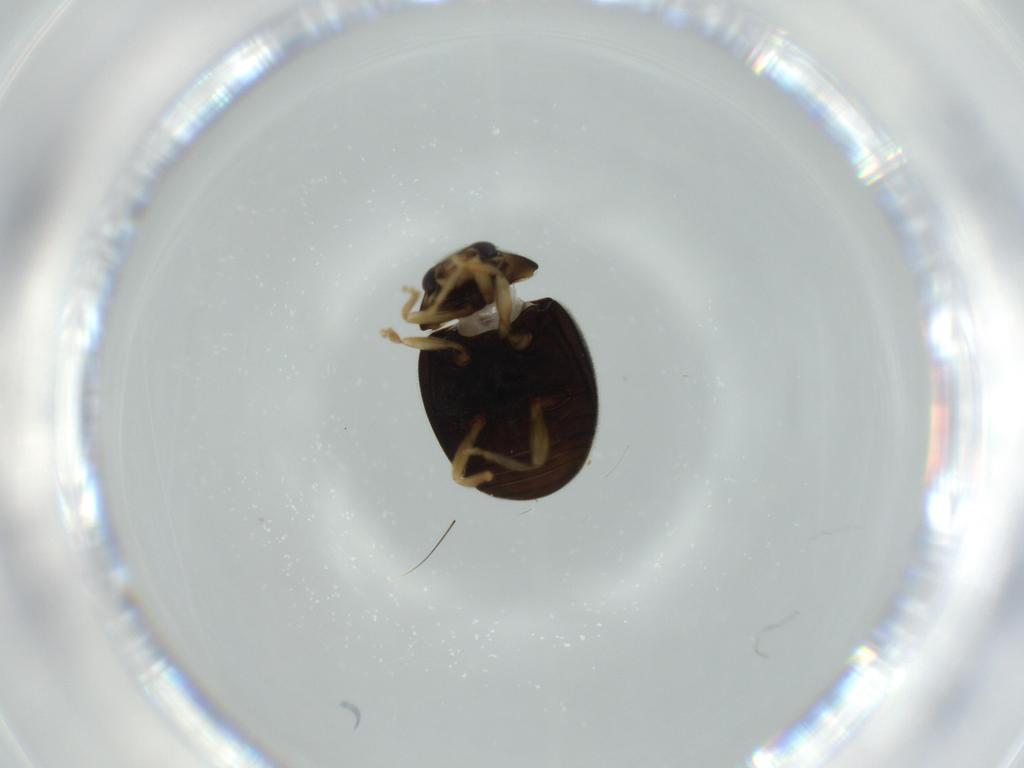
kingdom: Animalia
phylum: Arthropoda
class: Insecta
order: Coleoptera
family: Coccinellidae
